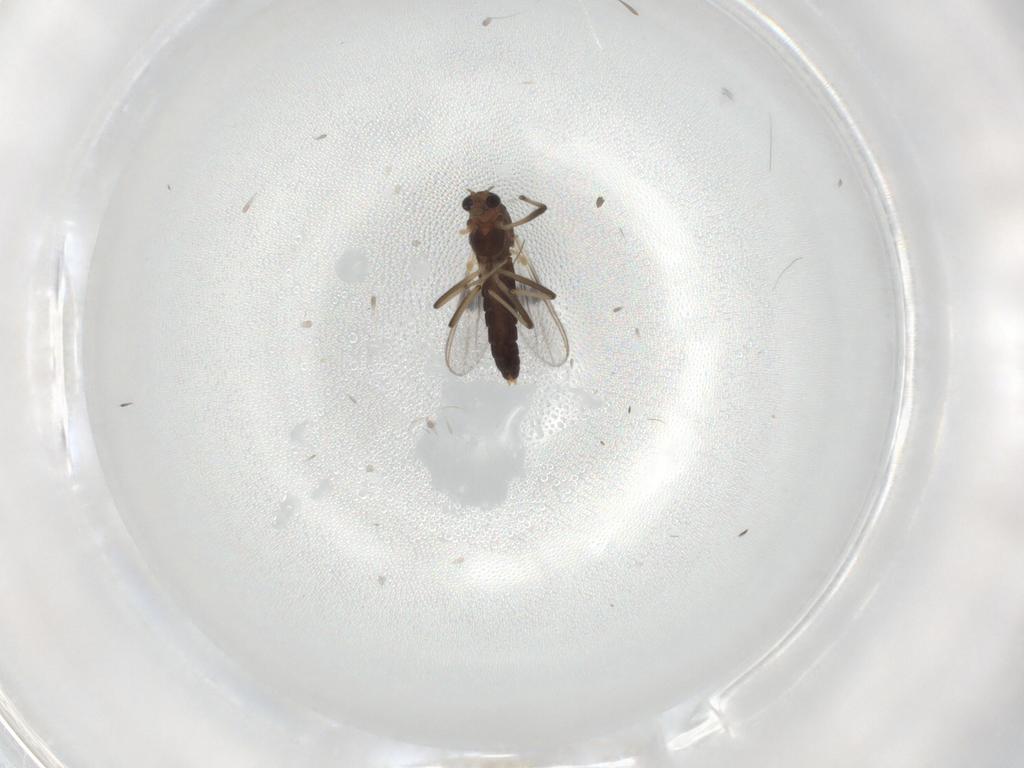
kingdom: Animalia
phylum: Arthropoda
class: Insecta
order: Diptera
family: Chironomidae
